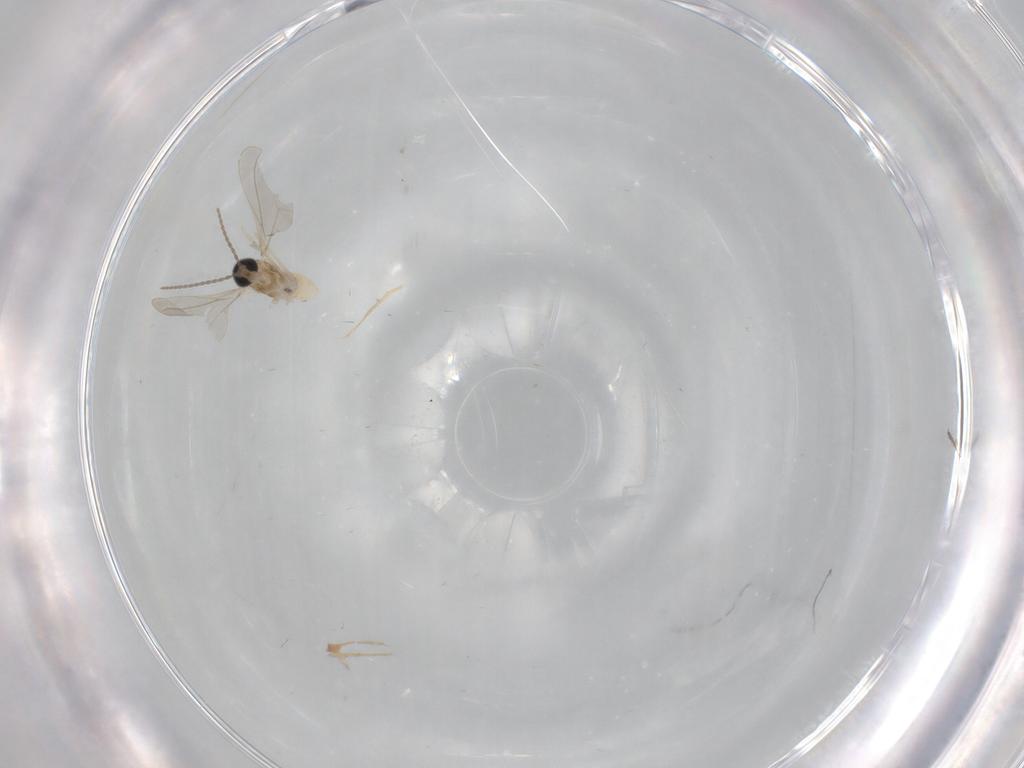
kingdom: Animalia
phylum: Arthropoda
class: Insecta
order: Diptera
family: Cecidomyiidae
